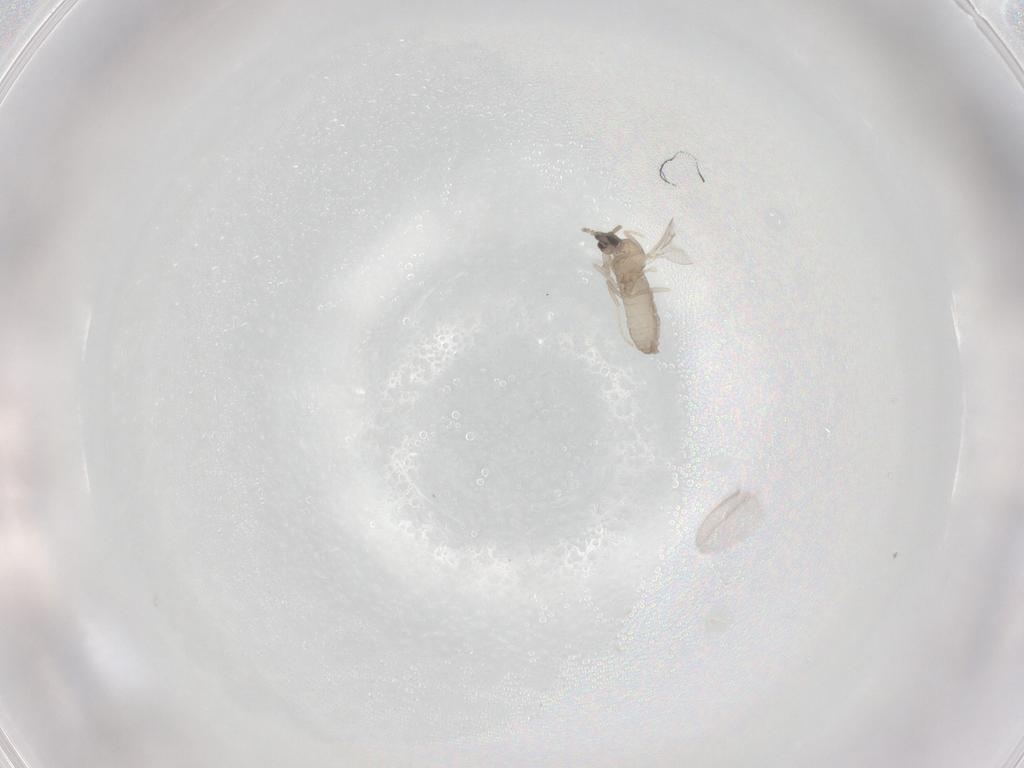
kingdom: Animalia
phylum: Arthropoda
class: Insecta
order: Diptera
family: Cecidomyiidae
